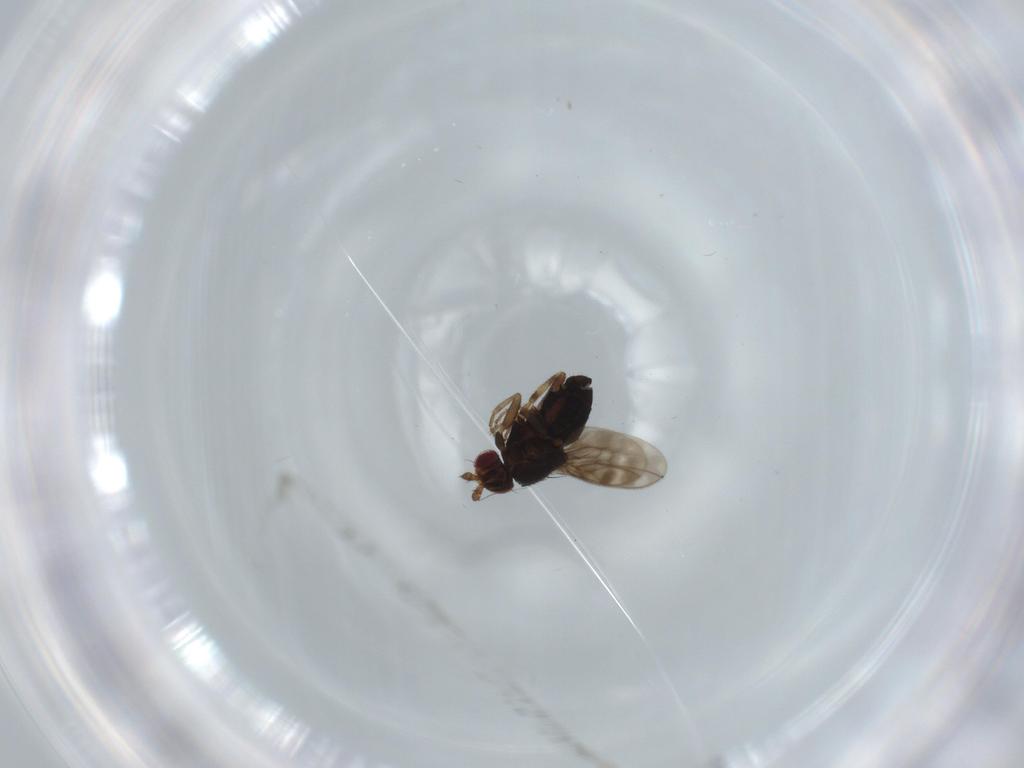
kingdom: Animalia
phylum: Arthropoda
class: Insecta
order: Diptera
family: Sphaeroceridae
